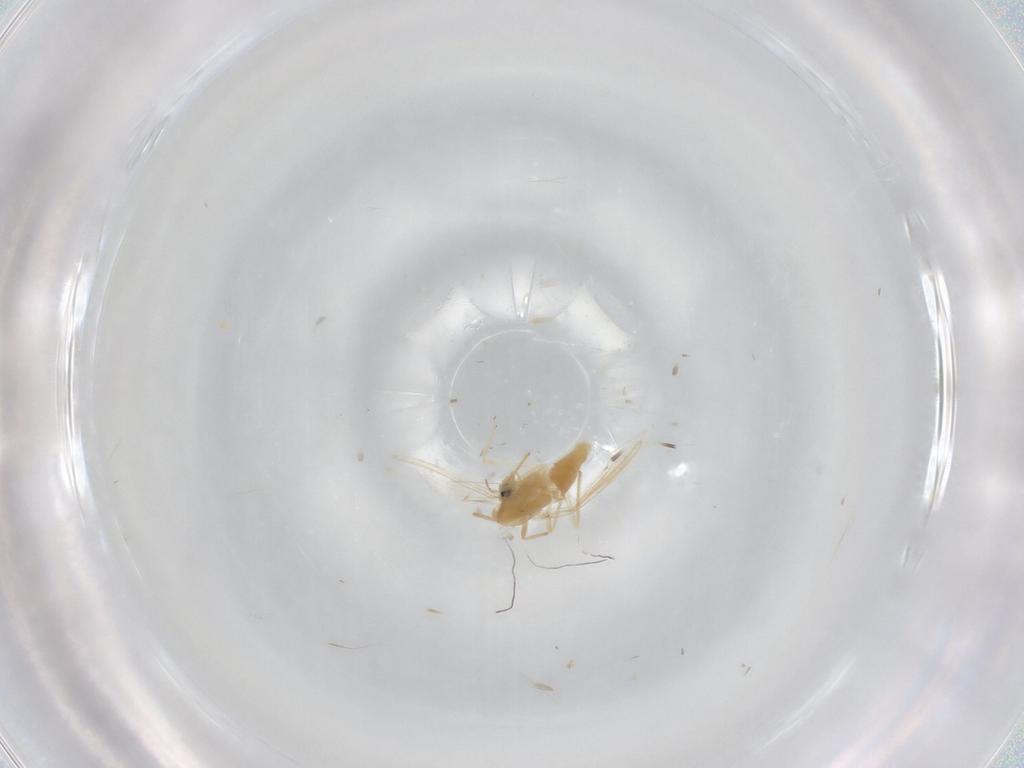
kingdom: Animalia
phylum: Arthropoda
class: Insecta
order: Diptera
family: Chironomidae
